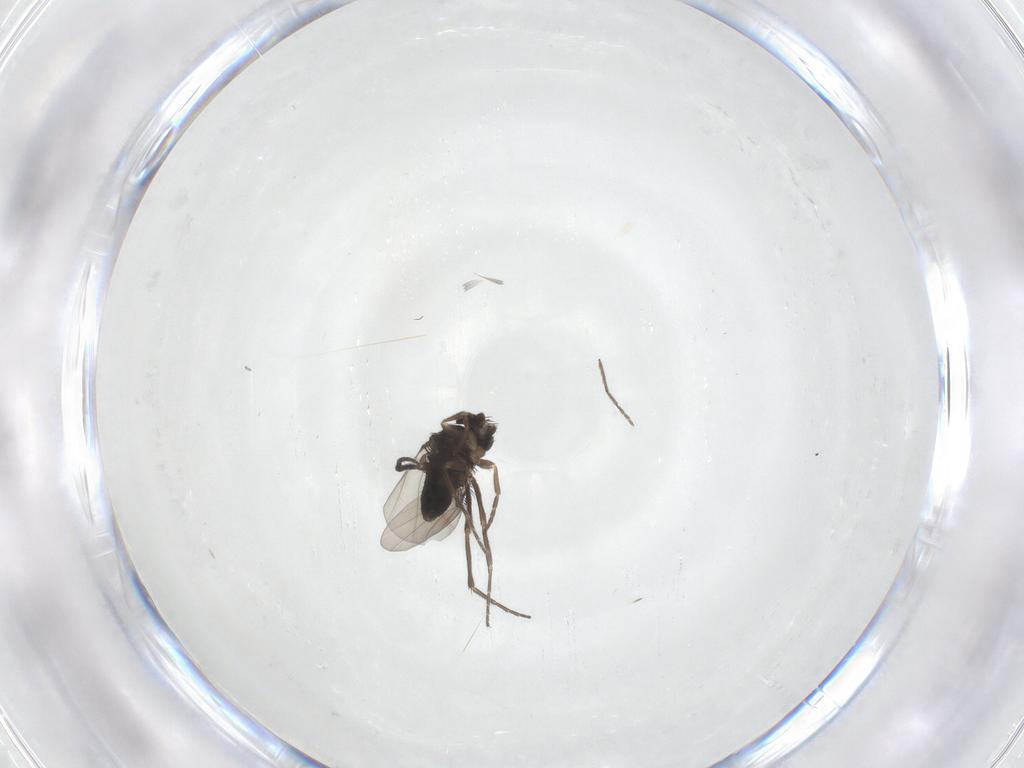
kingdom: Animalia
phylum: Arthropoda
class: Insecta
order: Diptera
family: Phoridae
